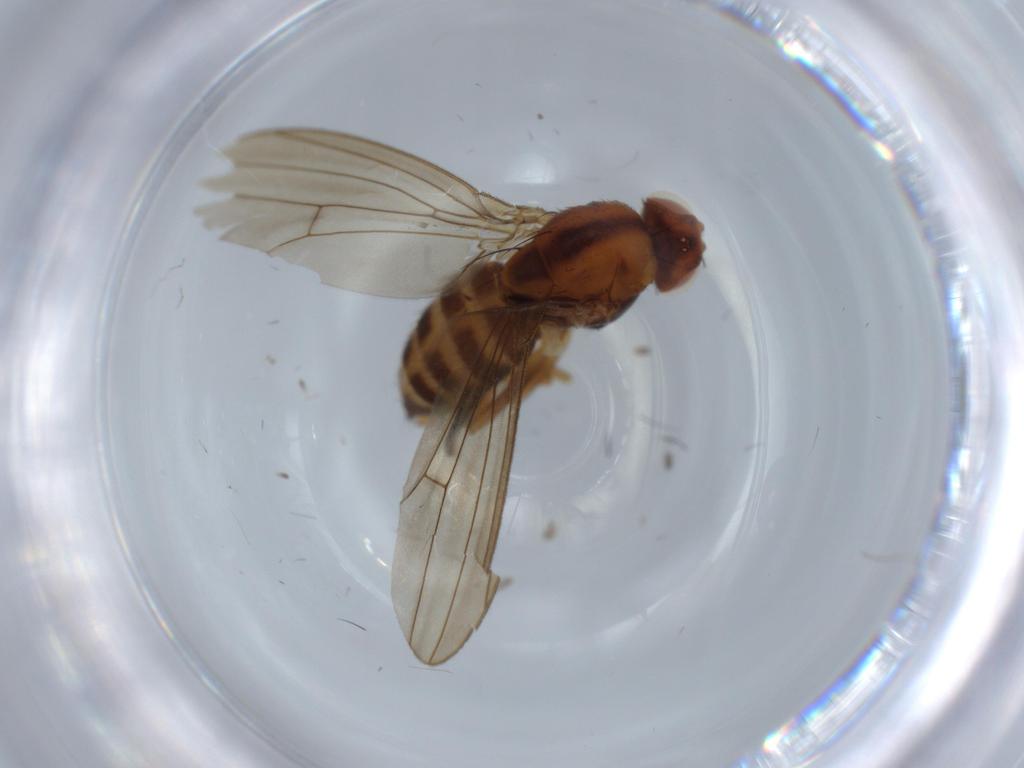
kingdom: Animalia
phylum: Arthropoda
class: Insecta
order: Diptera
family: Drosophilidae
